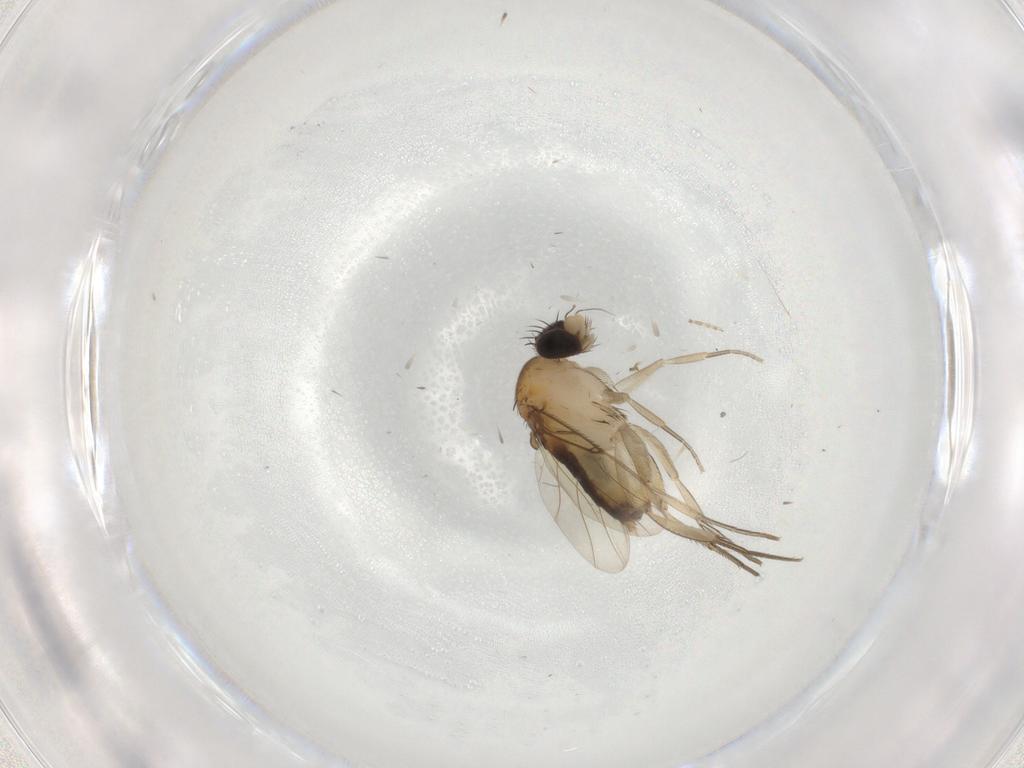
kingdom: Animalia
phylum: Arthropoda
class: Insecta
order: Diptera
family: Phoridae
